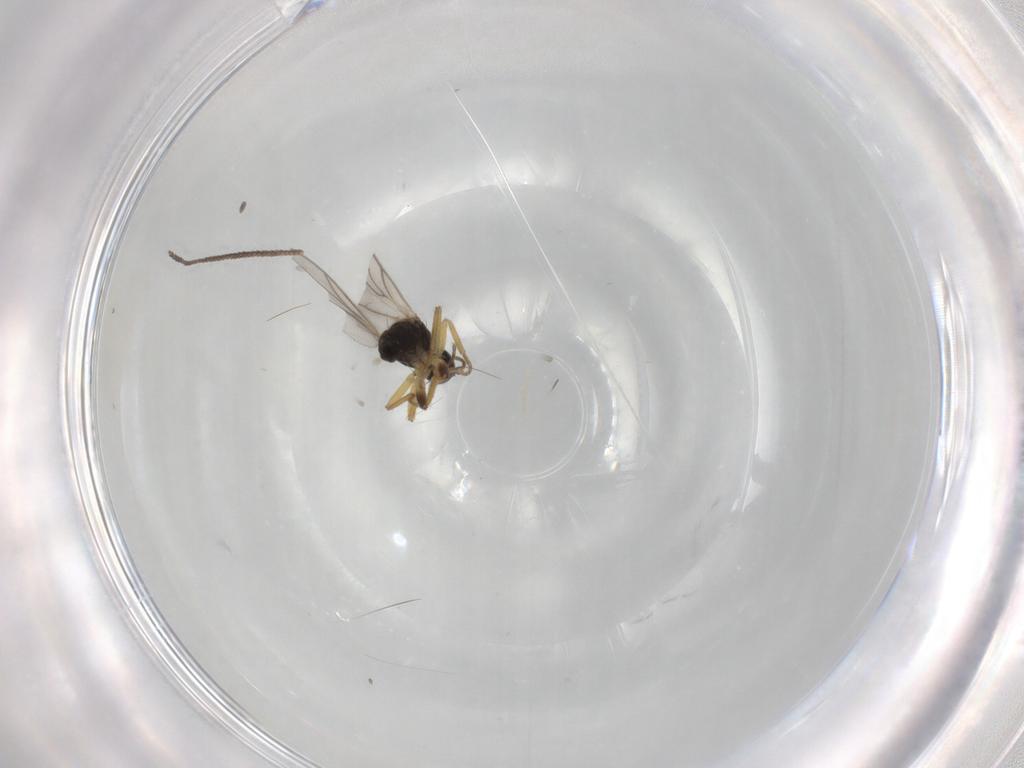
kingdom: Animalia
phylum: Arthropoda
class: Insecta
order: Diptera
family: Hybotidae
